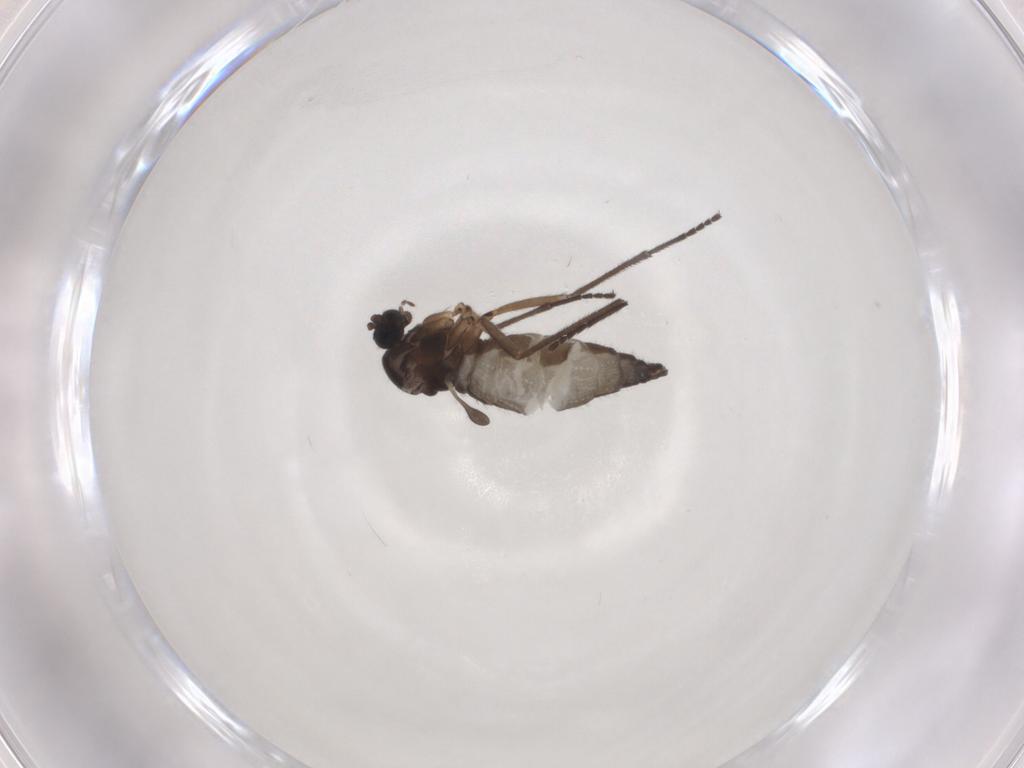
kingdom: Animalia
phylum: Arthropoda
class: Insecta
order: Diptera
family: Sciaridae
